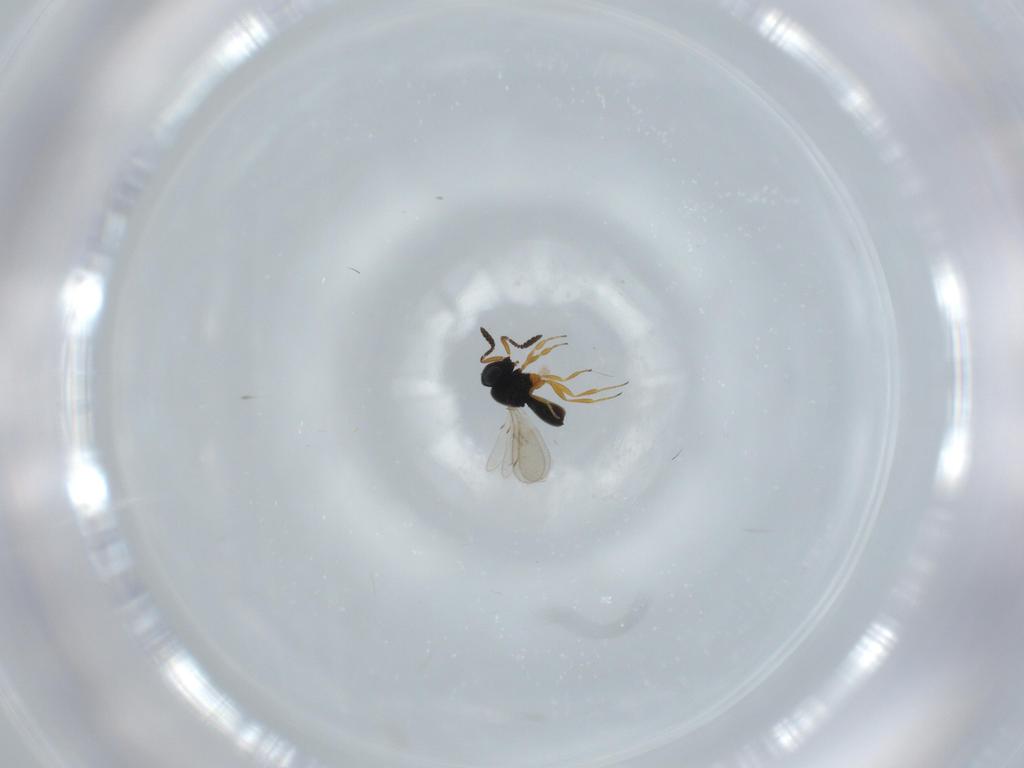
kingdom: Animalia
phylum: Arthropoda
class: Insecta
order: Hymenoptera
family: Scelionidae
